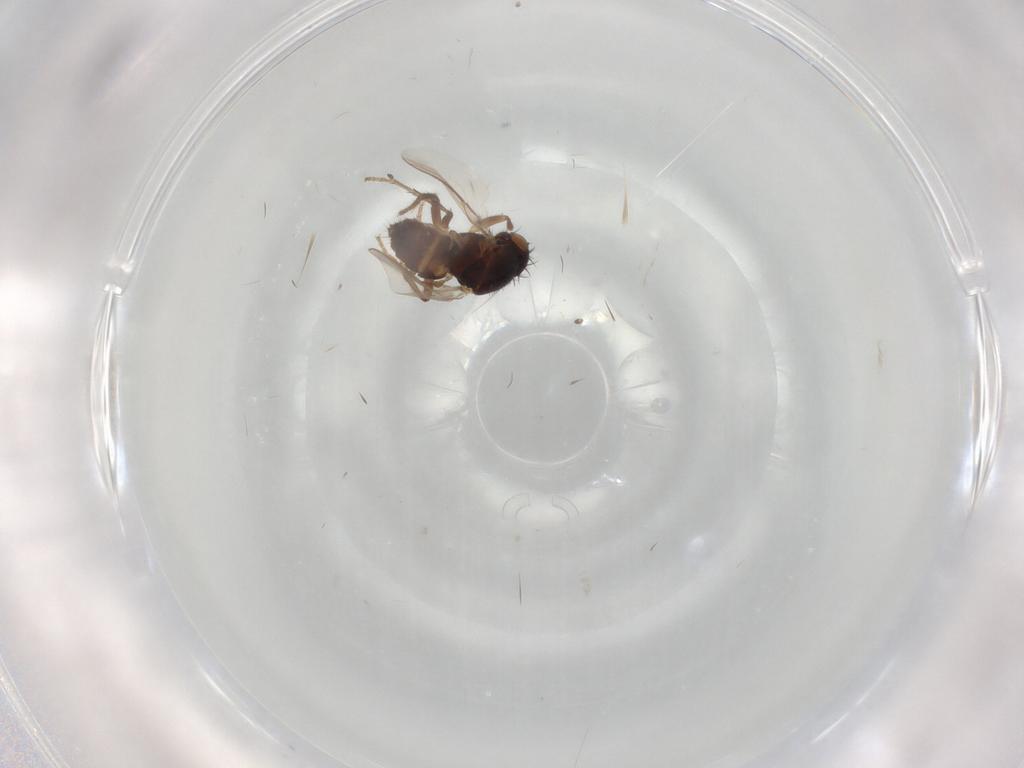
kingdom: Animalia
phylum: Arthropoda
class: Insecta
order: Diptera
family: Sphaeroceridae
